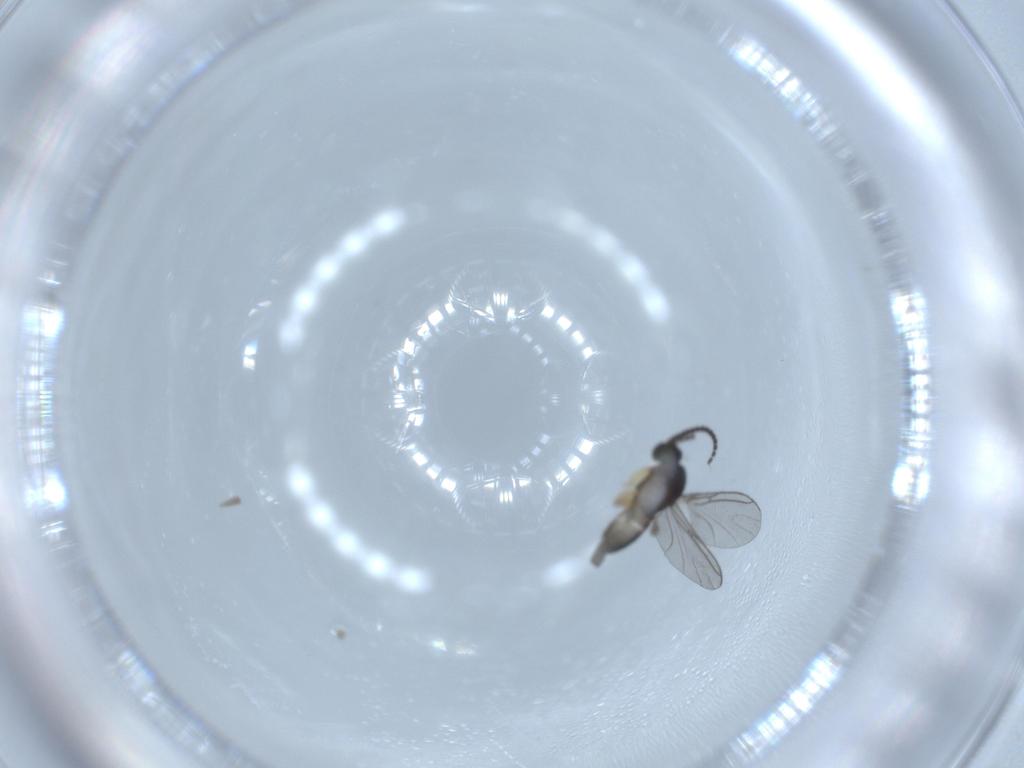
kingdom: Animalia
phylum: Arthropoda
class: Insecta
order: Diptera
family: Sciaridae
